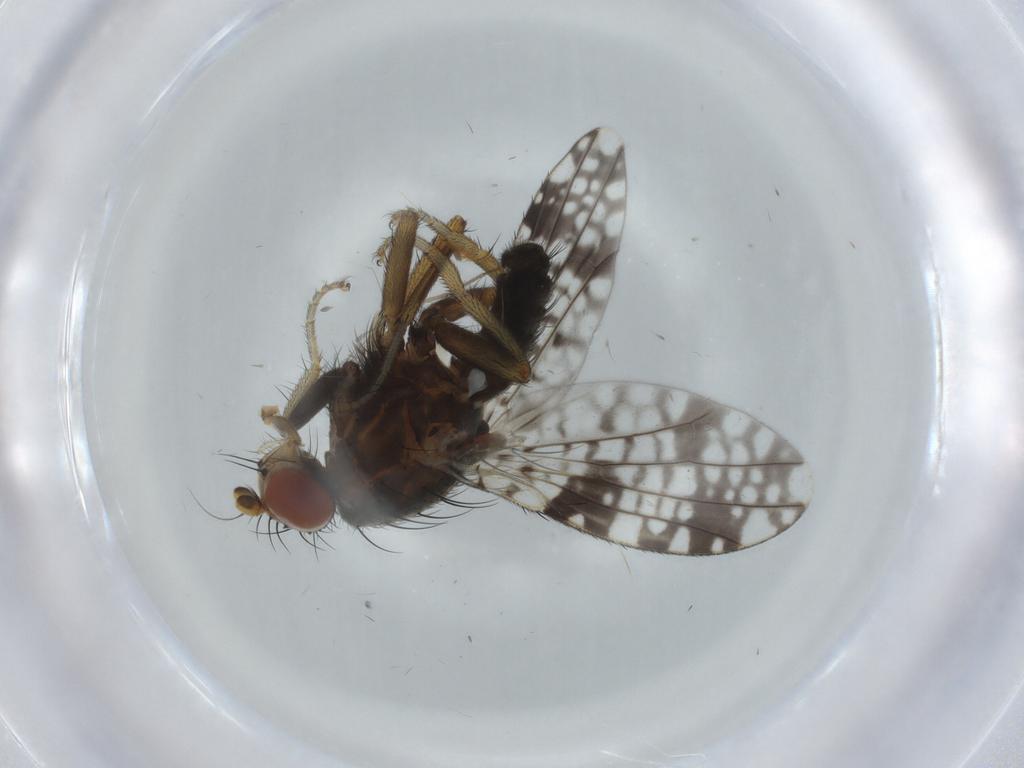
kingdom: Animalia
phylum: Arthropoda
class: Insecta
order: Diptera
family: Tephritidae
